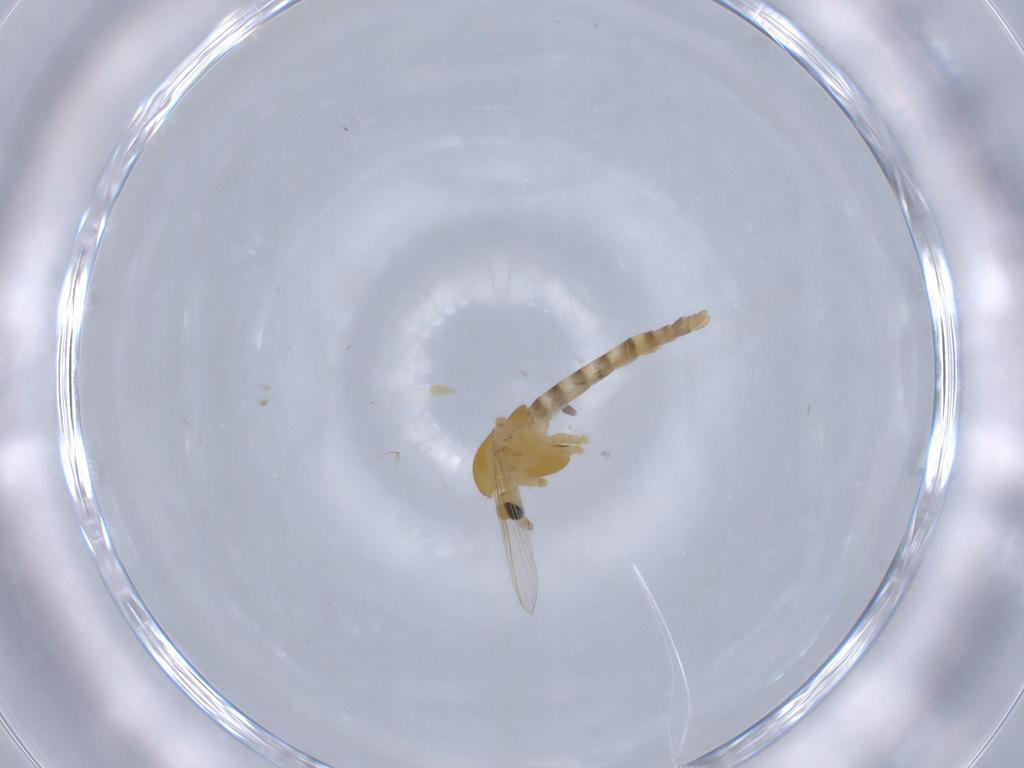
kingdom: Animalia
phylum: Arthropoda
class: Insecta
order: Diptera
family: Chironomidae
